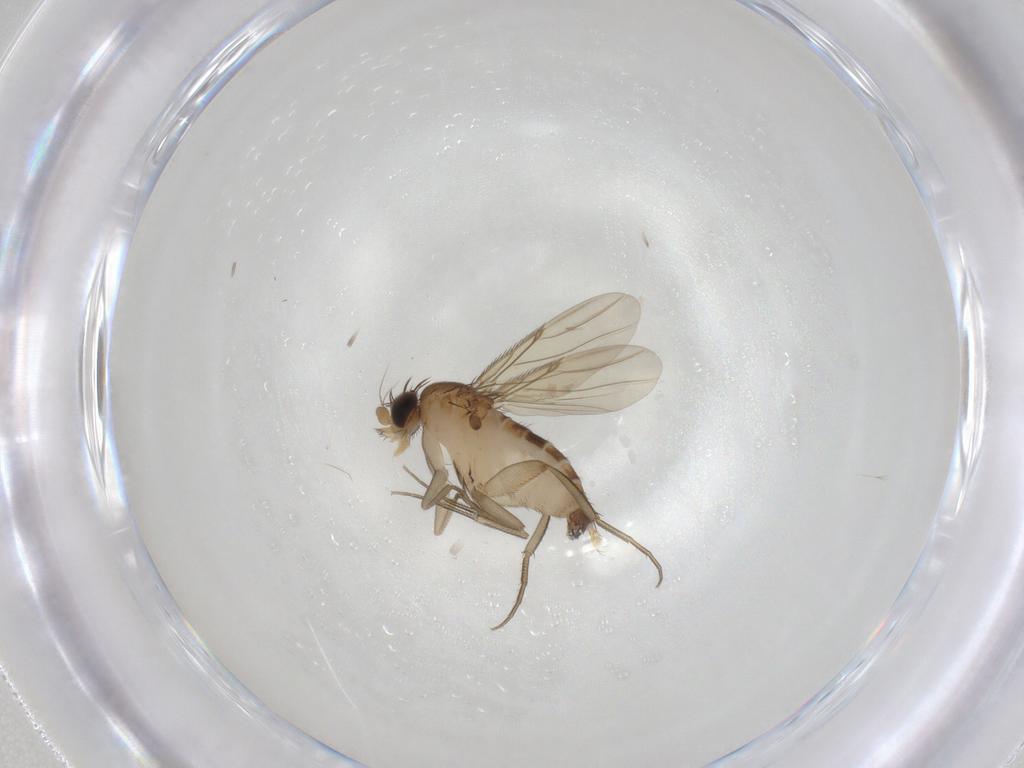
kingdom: Animalia
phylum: Arthropoda
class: Insecta
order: Diptera
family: Phoridae
